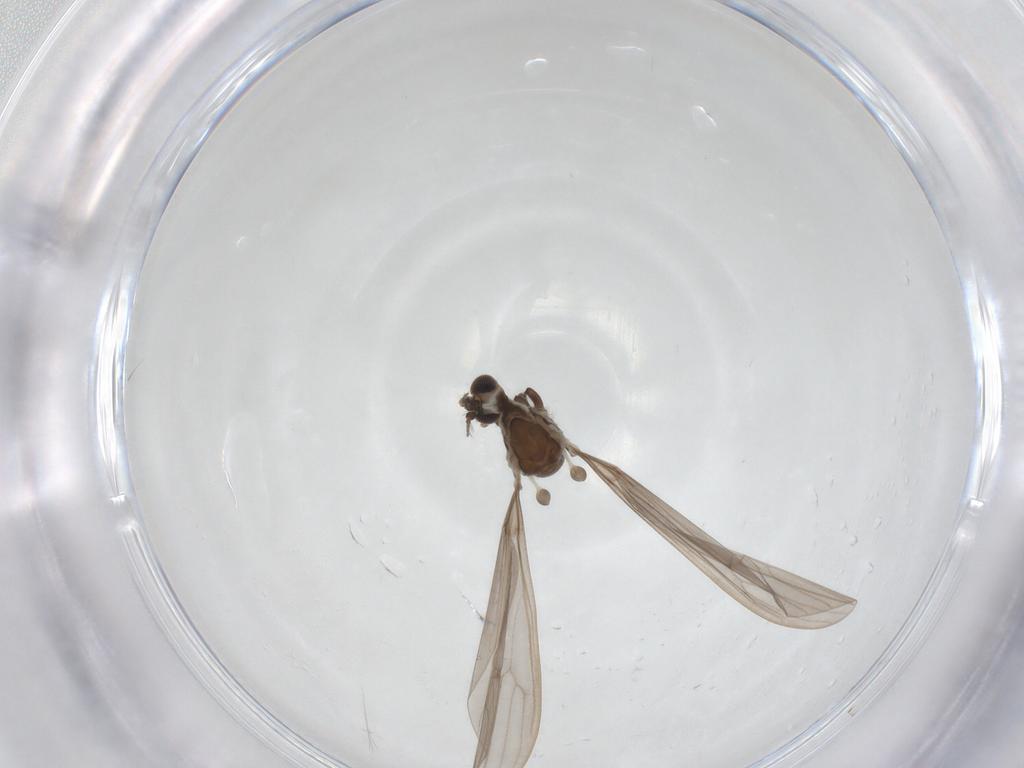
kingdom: Animalia
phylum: Arthropoda
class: Insecta
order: Diptera
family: Limoniidae
